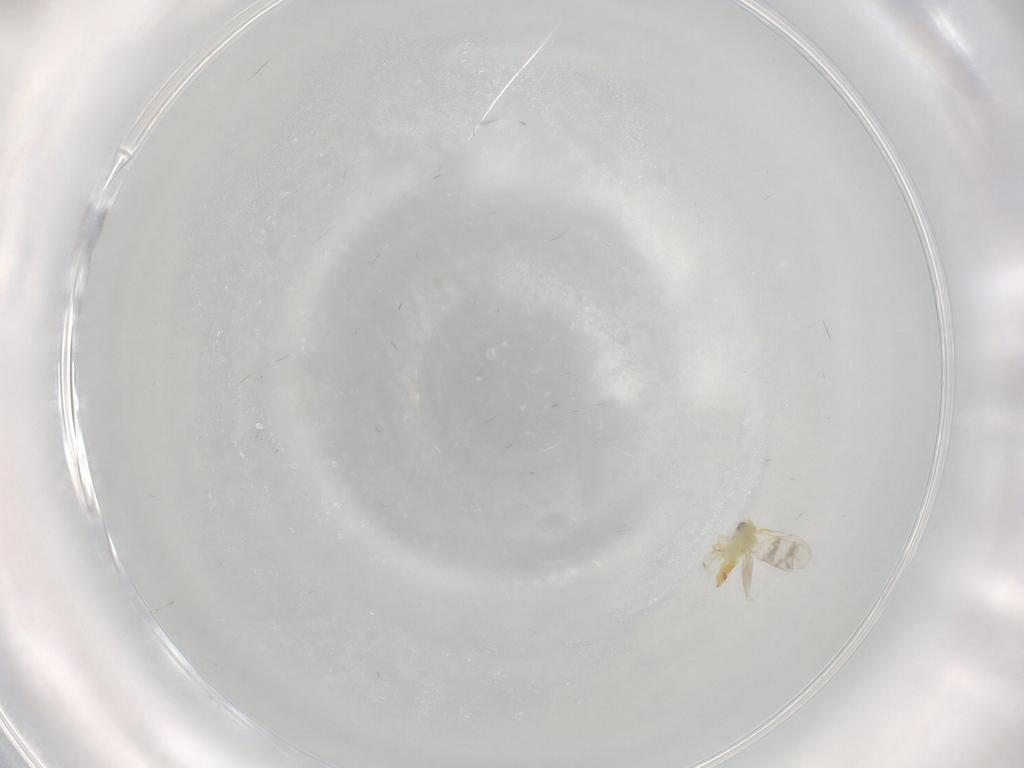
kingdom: Animalia
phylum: Arthropoda
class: Insecta
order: Hemiptera
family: Aleyrodidae
